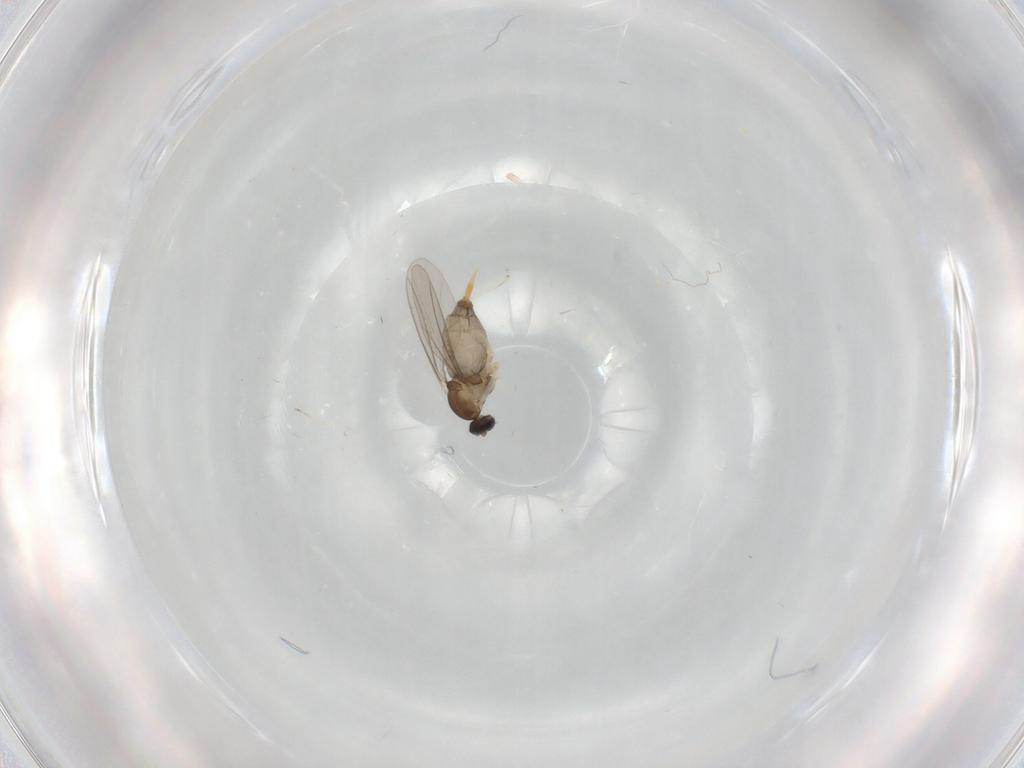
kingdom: Animalia
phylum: Arthropoda
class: Insecta
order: Diptera
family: Cecidomyiidae
